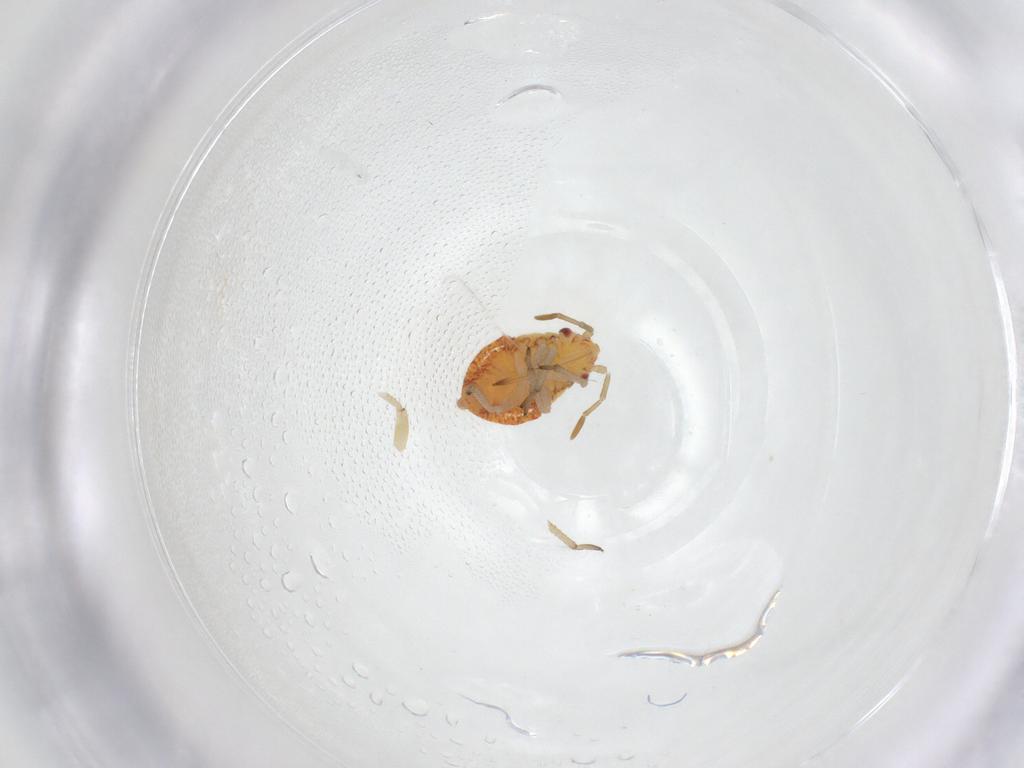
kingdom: Animalia
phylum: Arthropoda
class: Insecta
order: Hemiptera
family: Miridae
